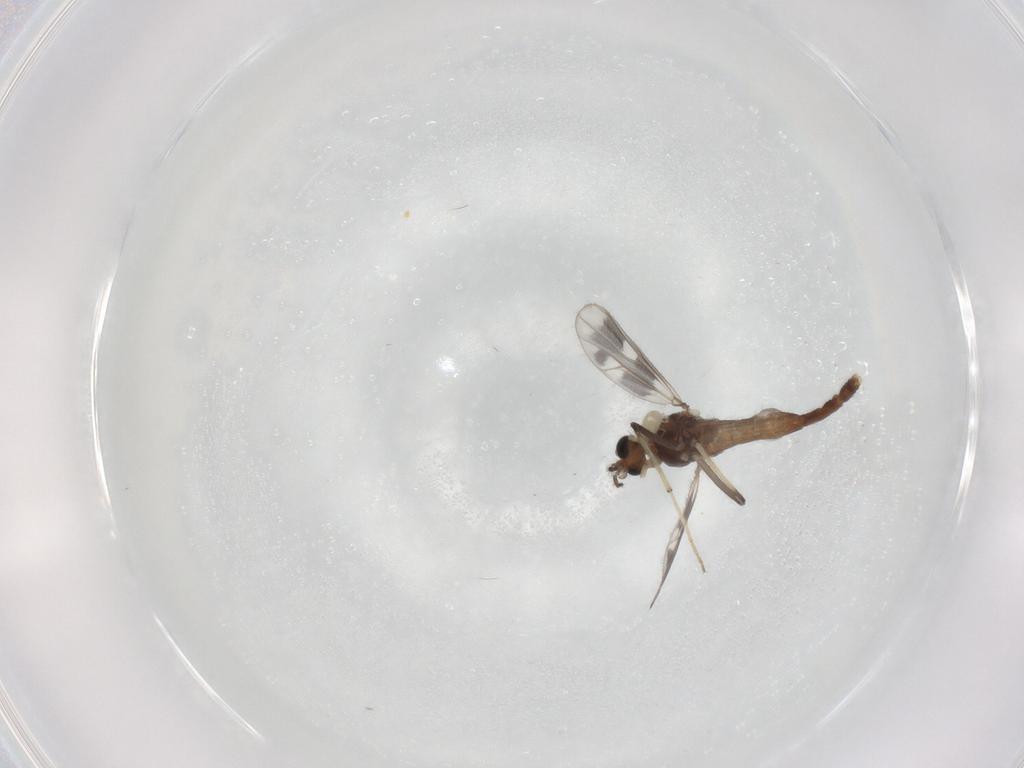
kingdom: Animalia
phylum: Arthropoda
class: Insecta
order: Diptera
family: Chironomidae
